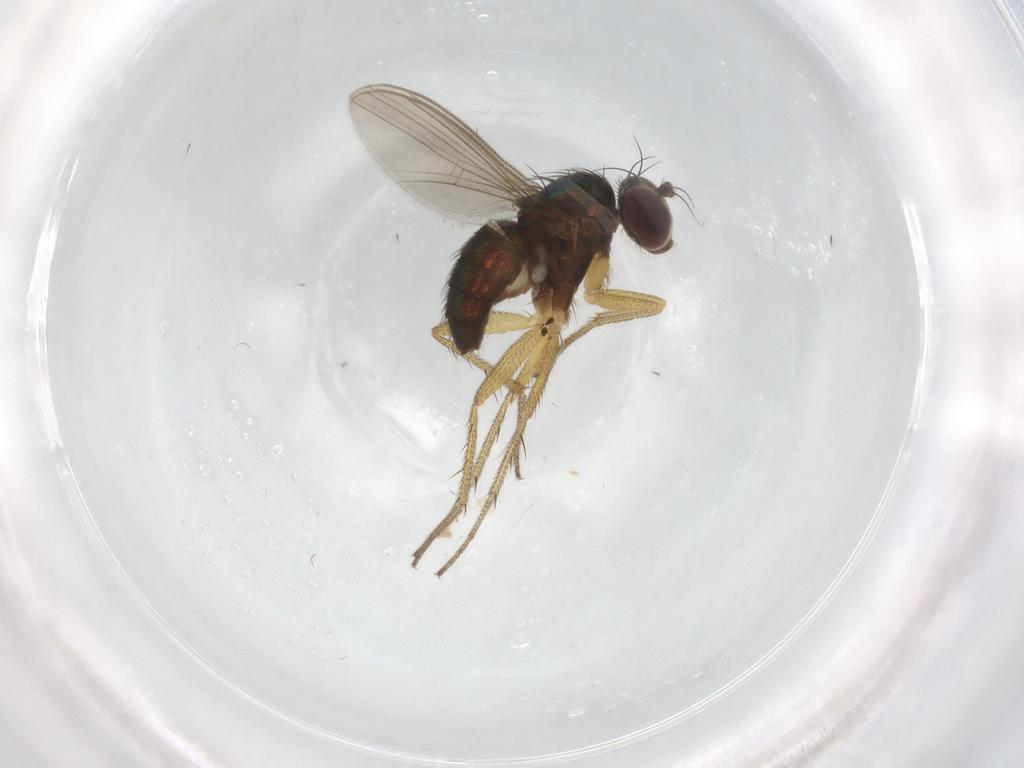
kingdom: Animalia
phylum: Arthropoda
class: Insecta
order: Diptera
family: Dolichopodidae
